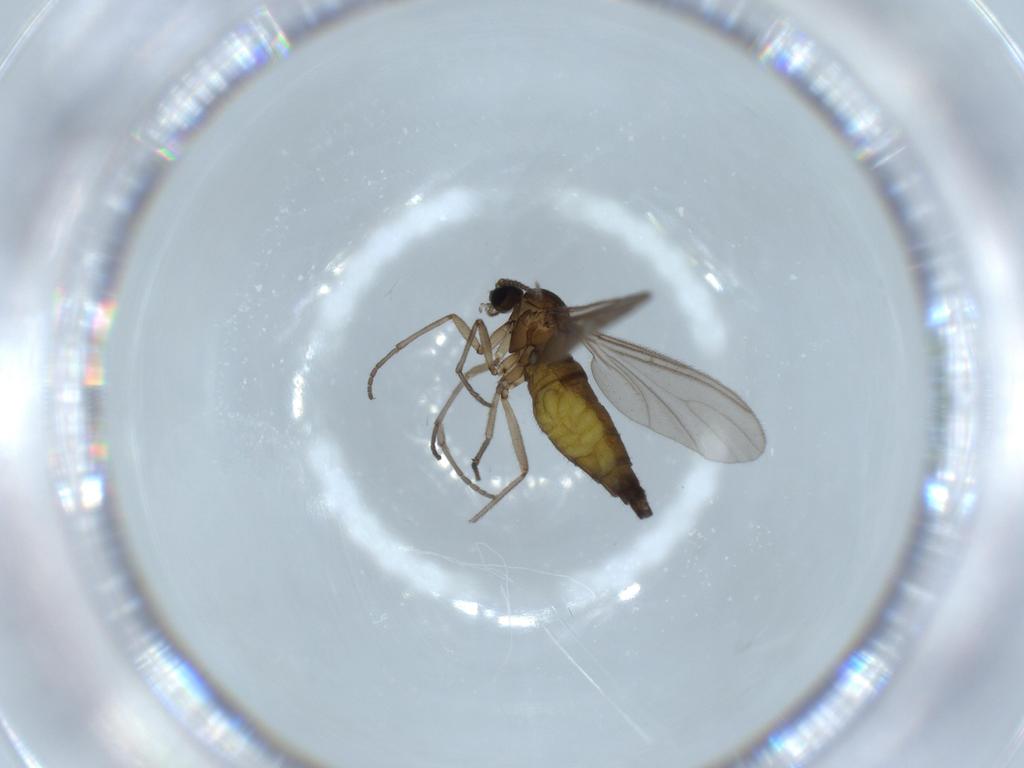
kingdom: Animalia
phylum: Arthropoda
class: Insecta
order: Diptera
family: Sciaridae
